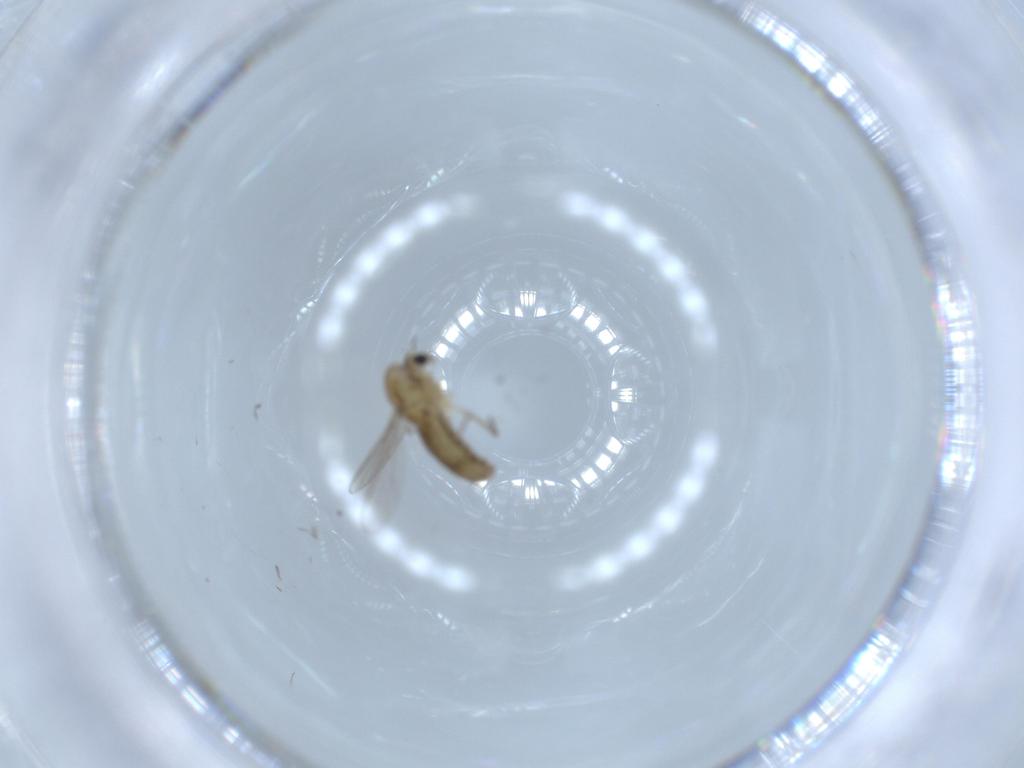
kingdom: Animalia
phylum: Arthropoda
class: Insecta
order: Diptera
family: Chironomidae
